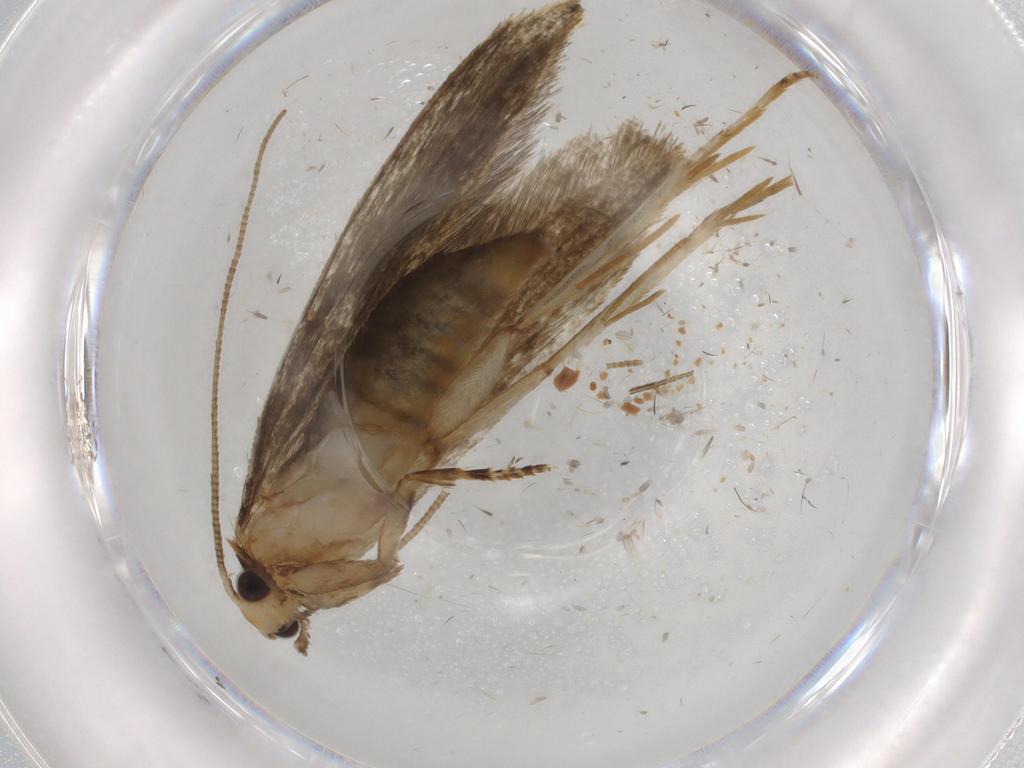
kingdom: Animalia
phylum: Arthropoda
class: Insecta
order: Lepidoptera
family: Tineidae
